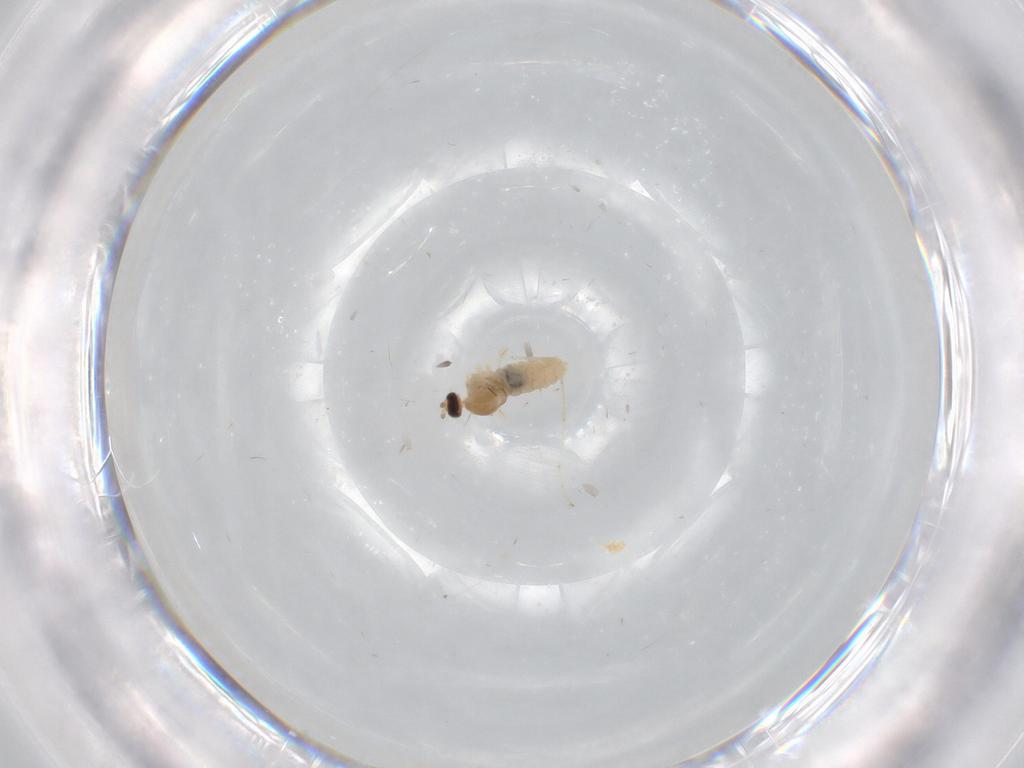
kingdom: Animalia
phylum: Arthropoda
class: Insecta
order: Diptera
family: Cecidomyiidae
